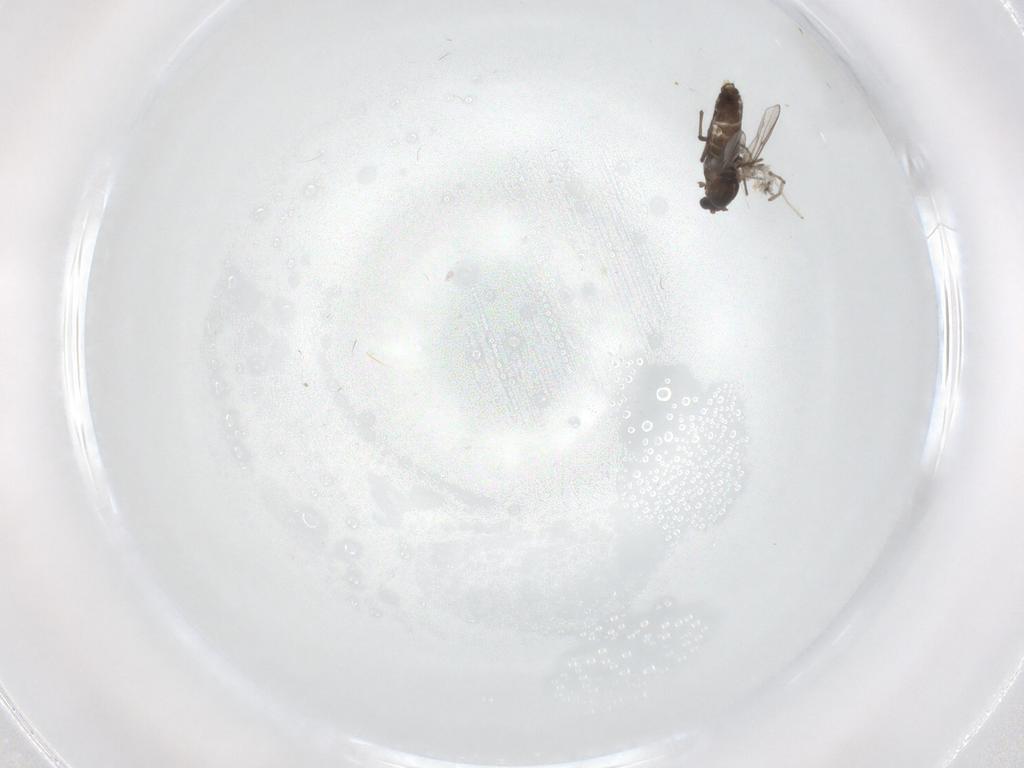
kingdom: Animalia
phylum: Arthropoda
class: Insecta
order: Diptera
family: Chironomidae
